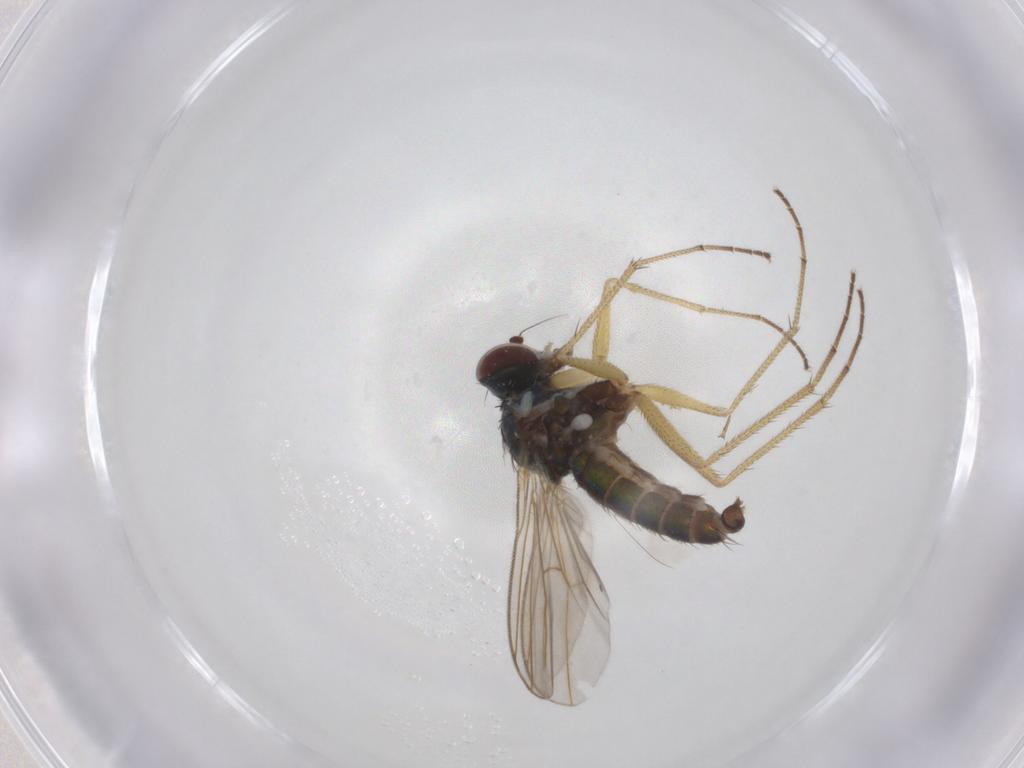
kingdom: Animalia
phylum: Arthropoda
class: Insecta
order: Diptera
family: Dolichopodidae
